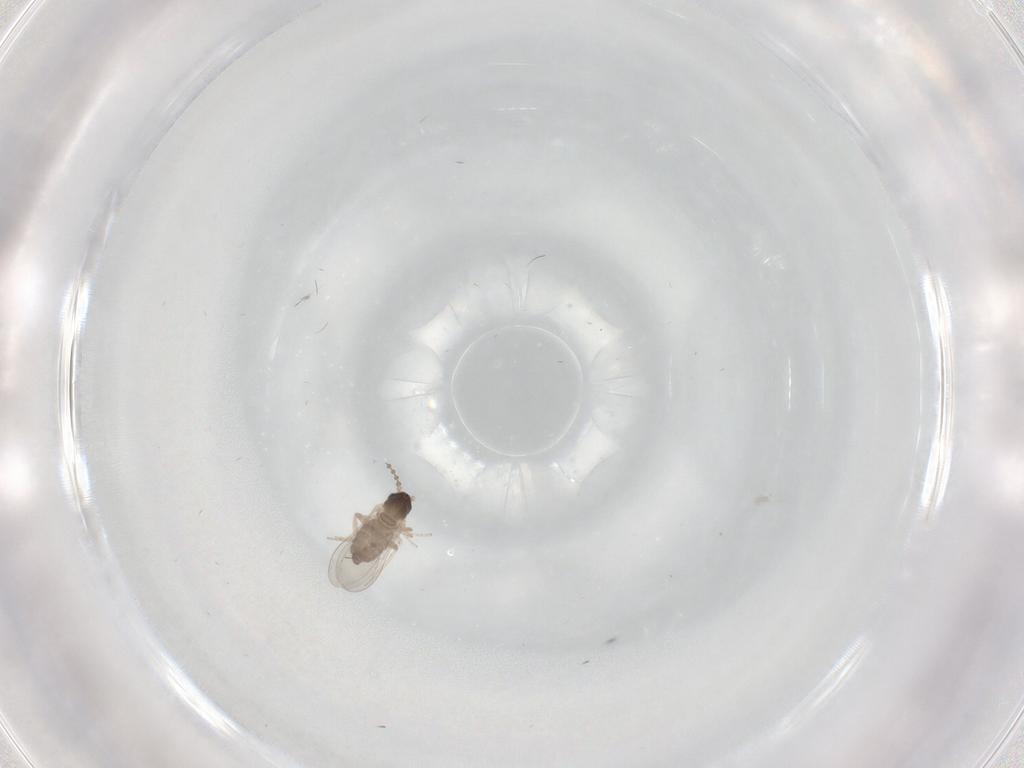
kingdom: Animalia
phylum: Arthropoda
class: Insecta
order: Diptera
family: Cecidomyiidae
